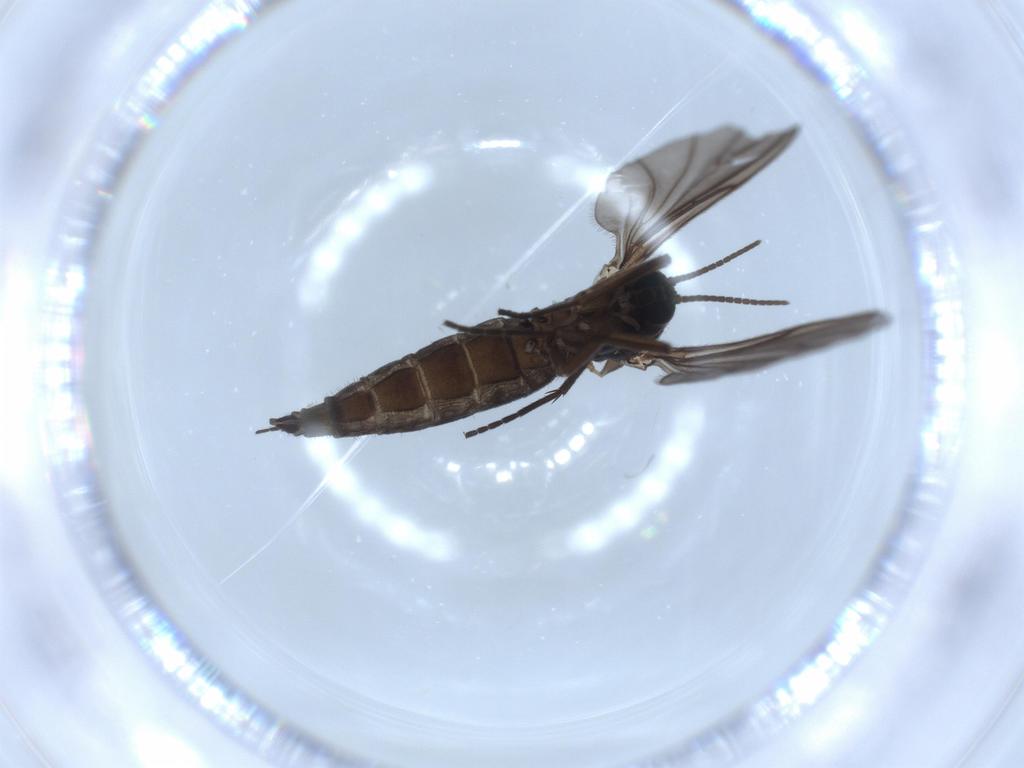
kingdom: Animalia
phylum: Arthropoda
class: Insecta
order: Diptera
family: Sciaridae
